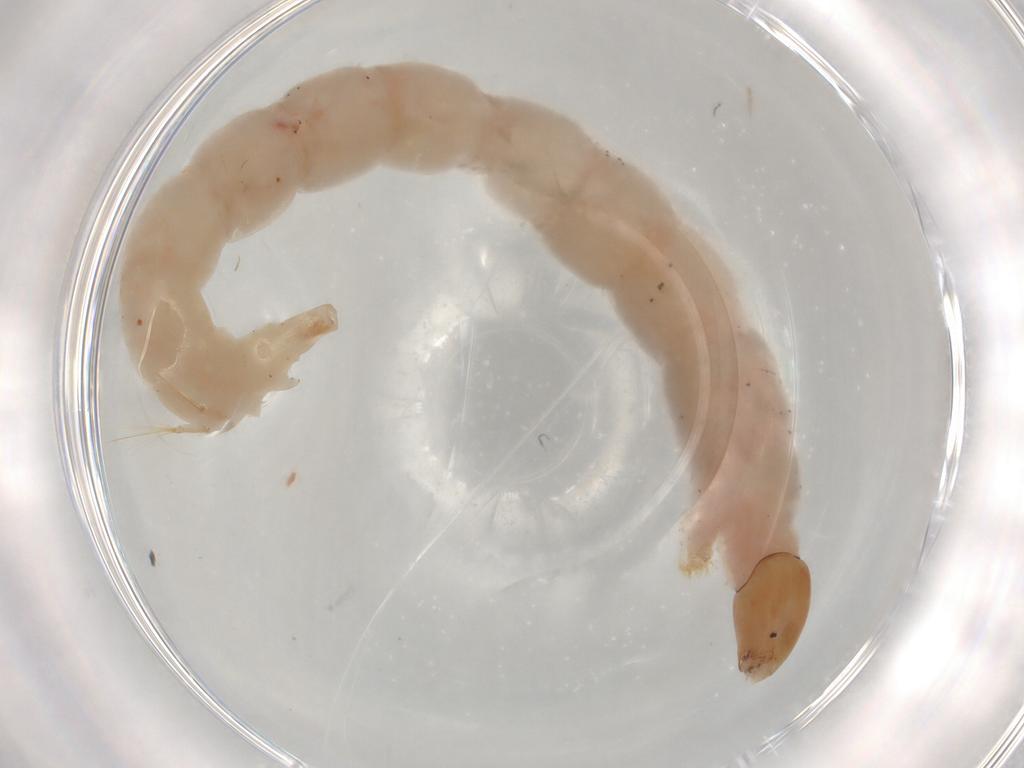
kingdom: Animalia
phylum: Arthropoda
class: Insecta
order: Diptera
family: Chironomidae
